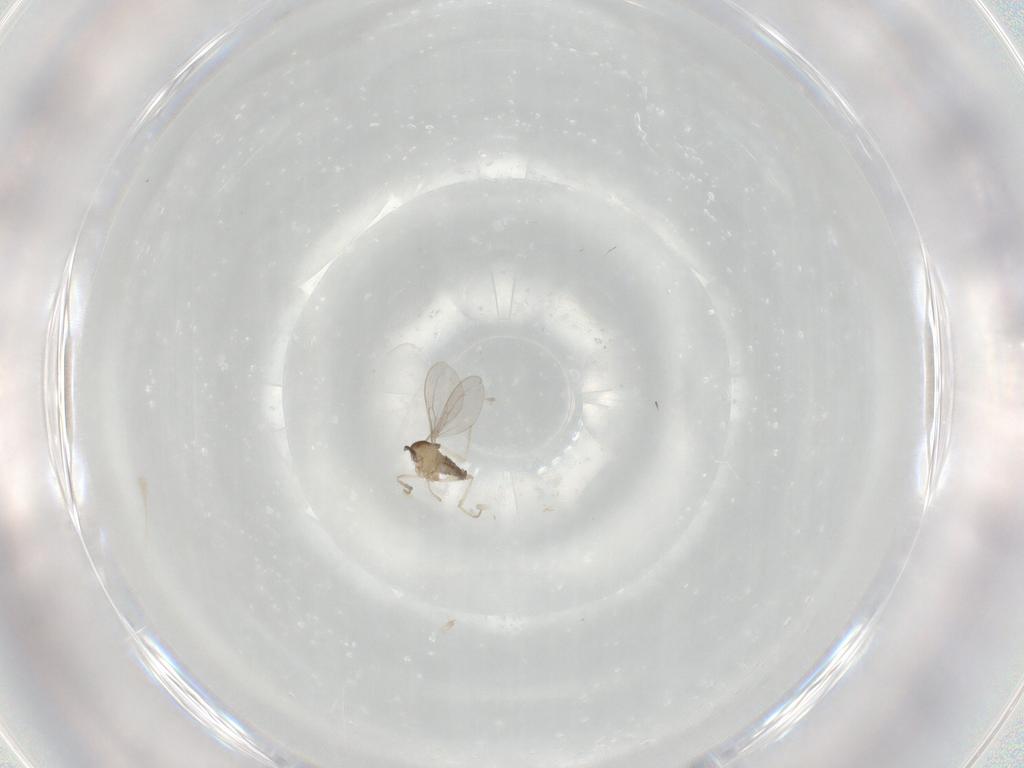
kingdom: Animalia
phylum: Arthropoda
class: Insecta
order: Diptera
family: Cecidomyiidae
